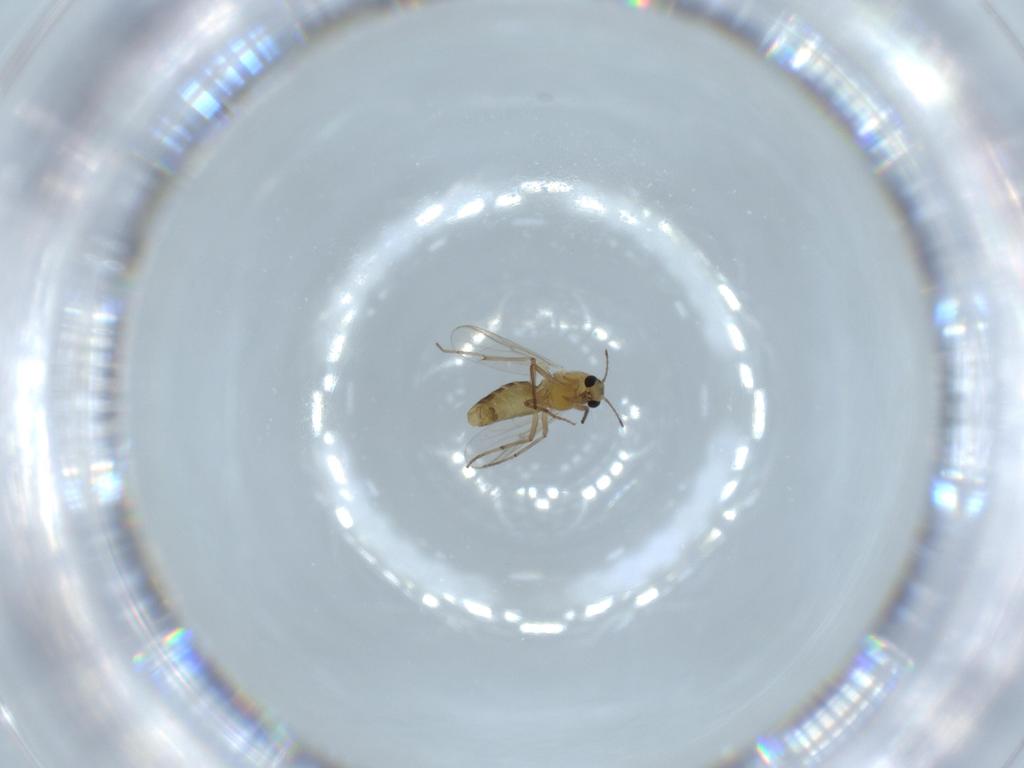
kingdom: Animalia
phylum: Arthropoda
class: Insecta
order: Diptera
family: Chironomidae
